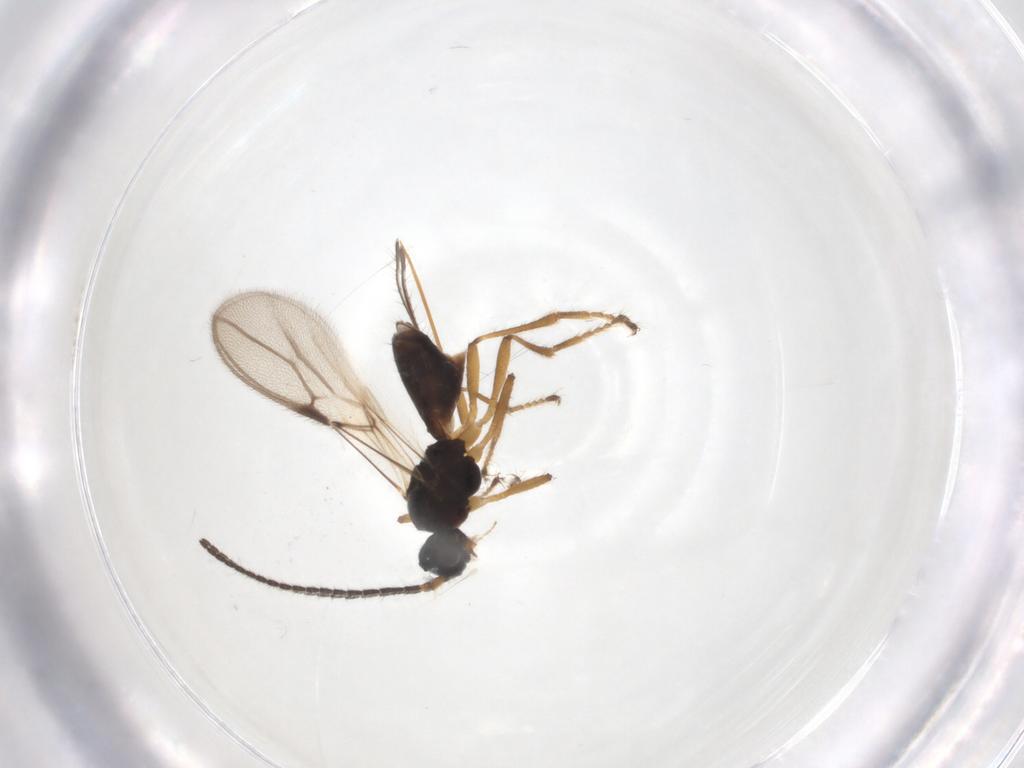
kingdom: Animalia
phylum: Arthropoda
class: Insecta
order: Hymenoptera
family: Braconidae
